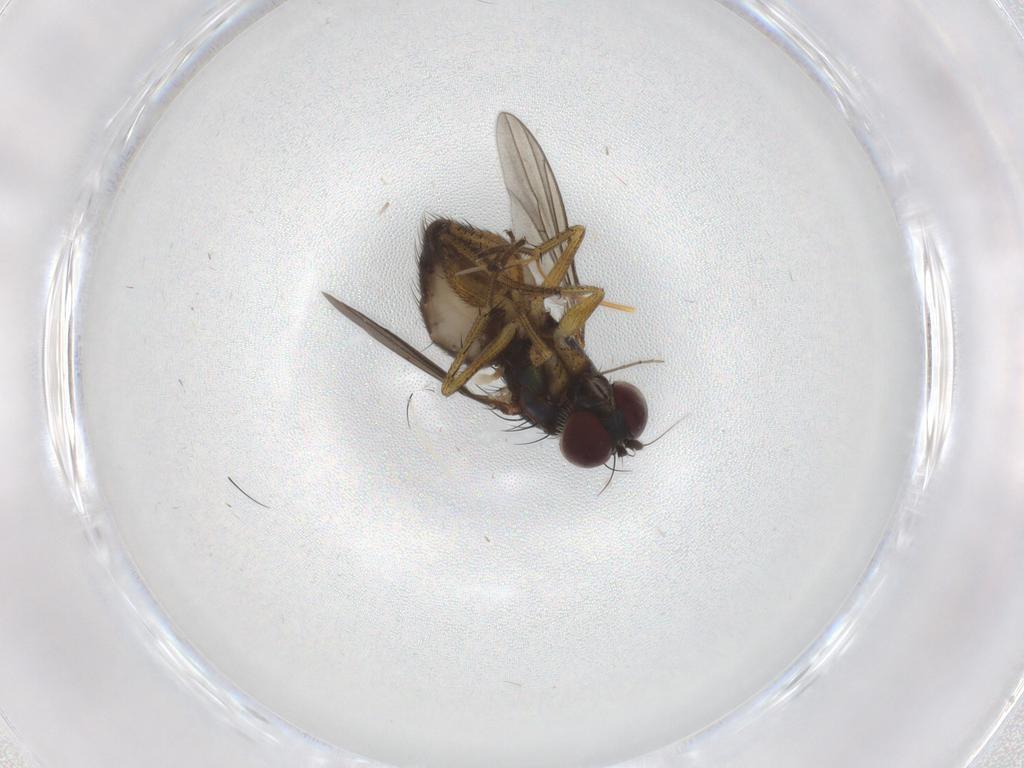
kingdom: Animalia
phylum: Arthropoda
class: Insecta
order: Diptera
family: Dolichopodidae
